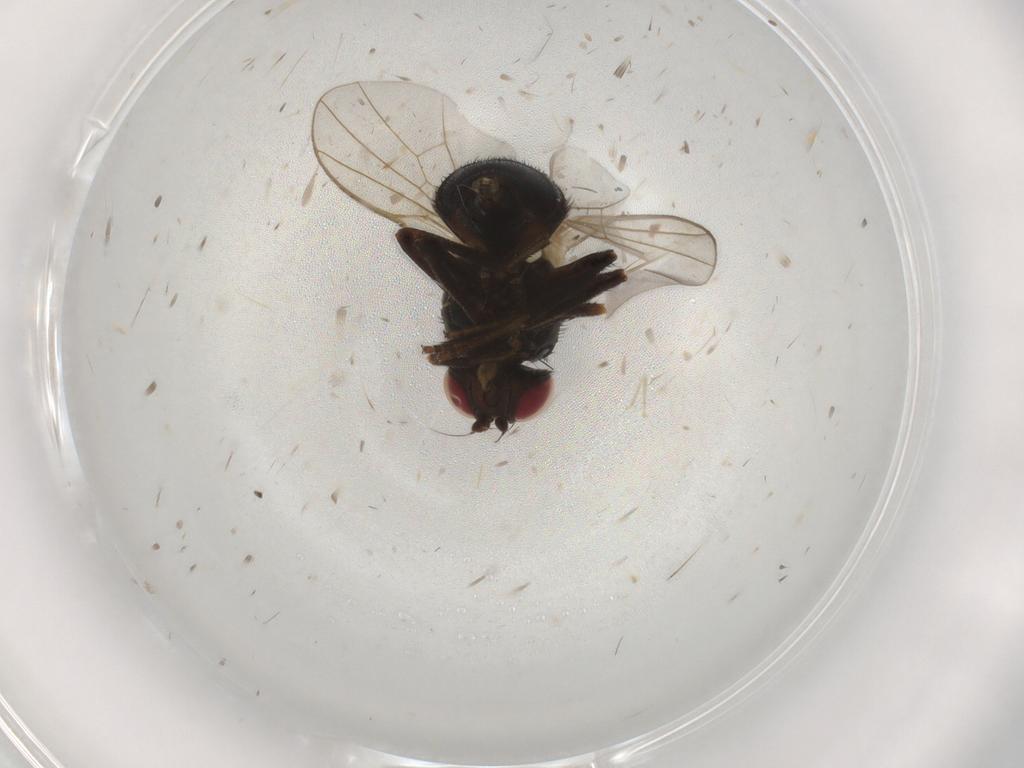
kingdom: Animalia
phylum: Arthropoda
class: Insecta
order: Diptera
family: Agromyzidae
